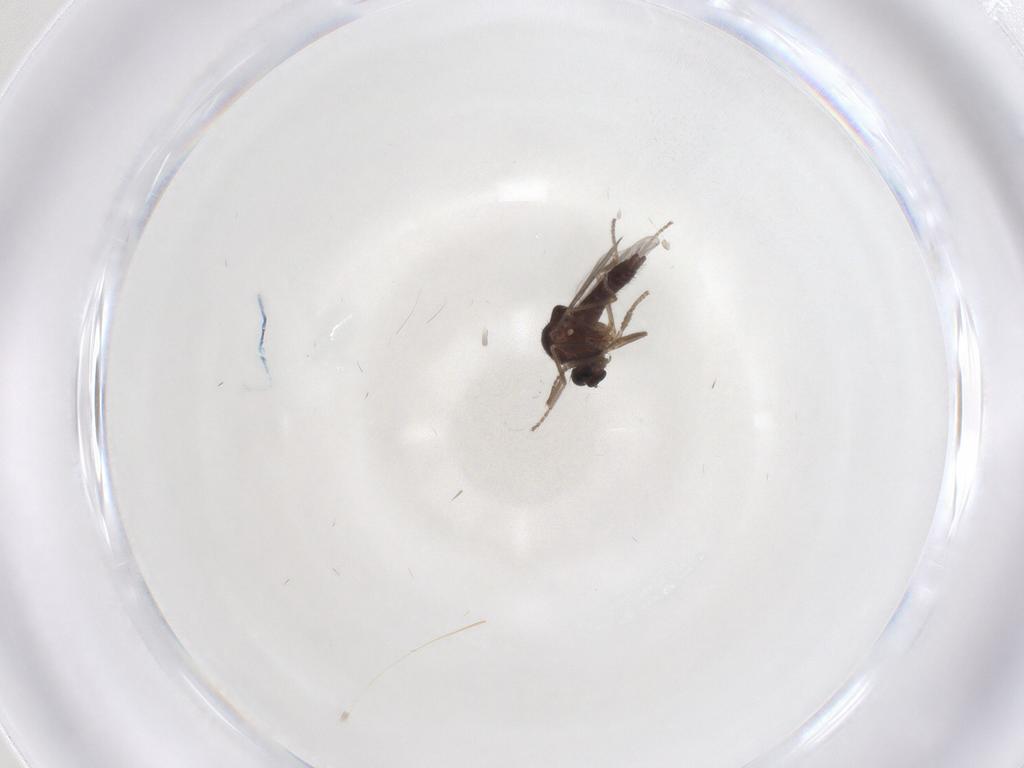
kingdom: Animalia
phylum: Arthropoda
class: Insecta
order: Diptera
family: Ceratopogonidae
